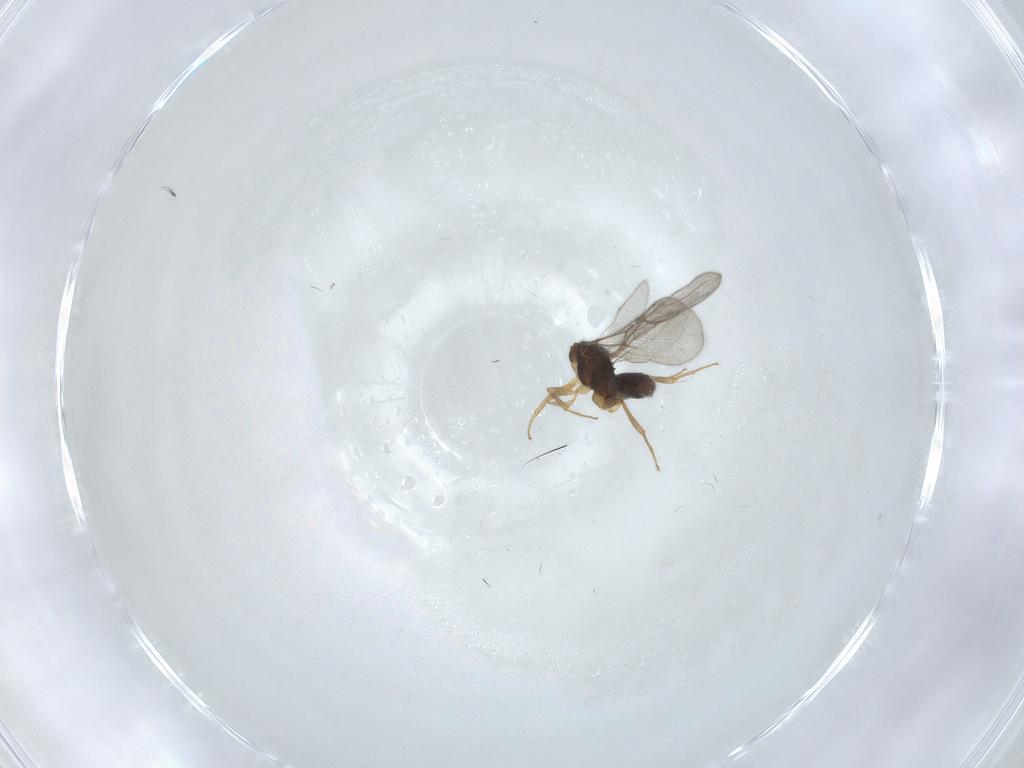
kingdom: Animalia
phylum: Arthropoda
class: Insecta
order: Hymenoptera
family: Bethylidae
